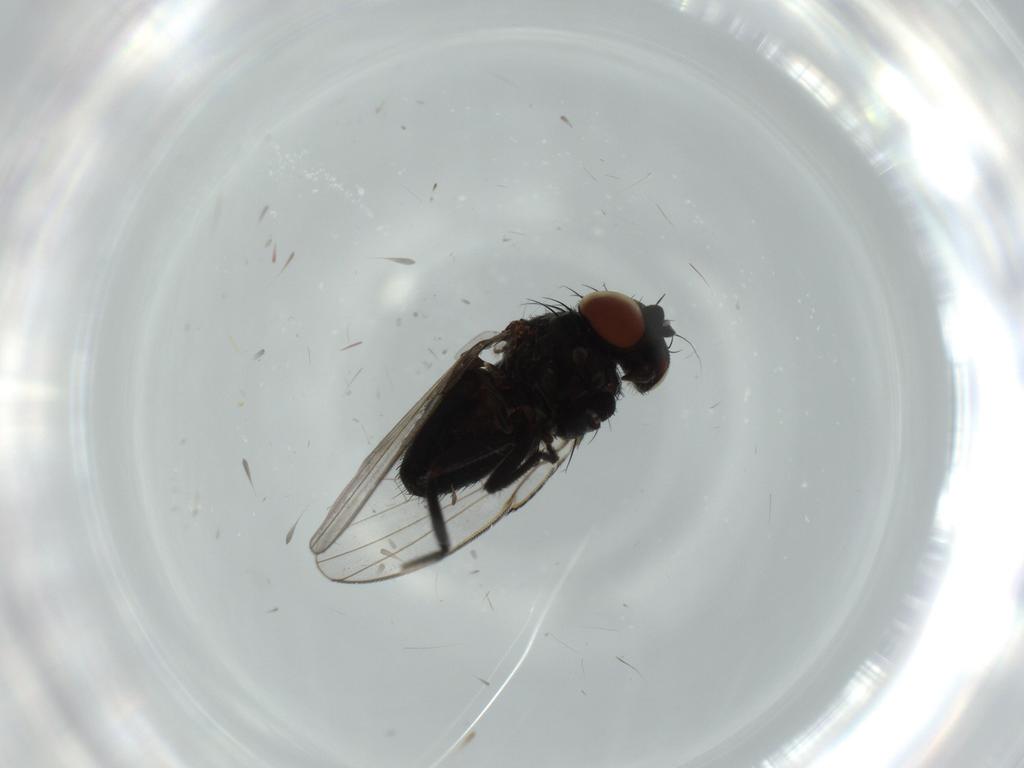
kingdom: Animalia
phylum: Arthropoda
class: Insecta
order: Diptera
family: Milichiidae
